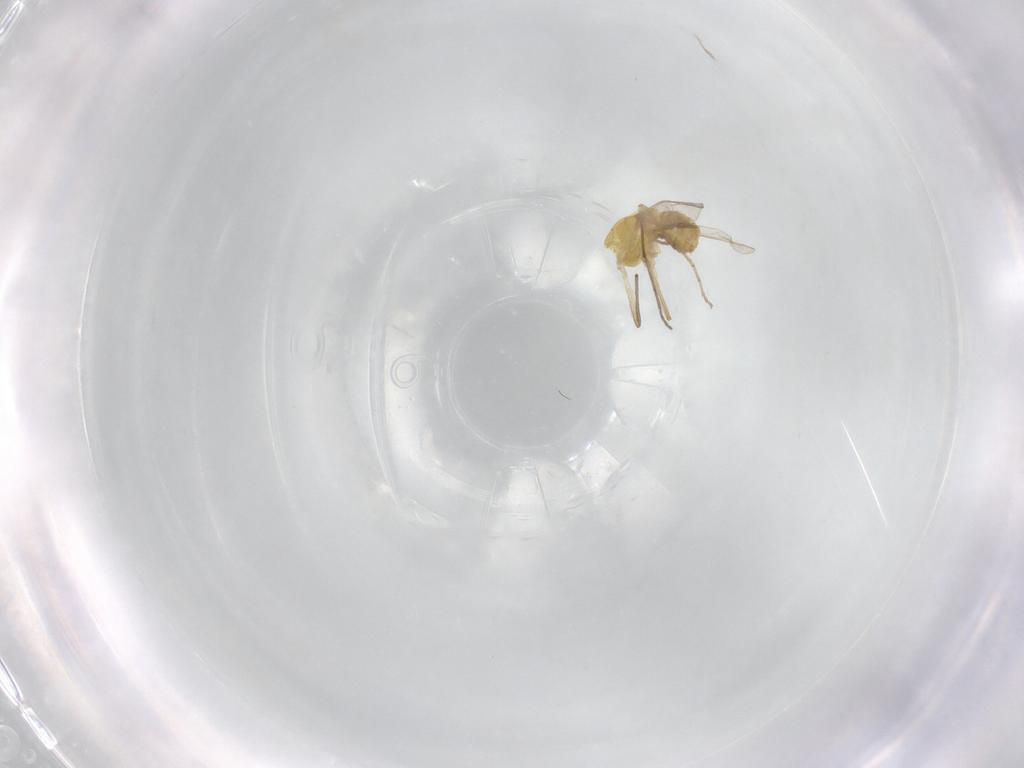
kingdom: Animalia
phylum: Arthropoda
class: Insecta
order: Diptera
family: Chironomidae
